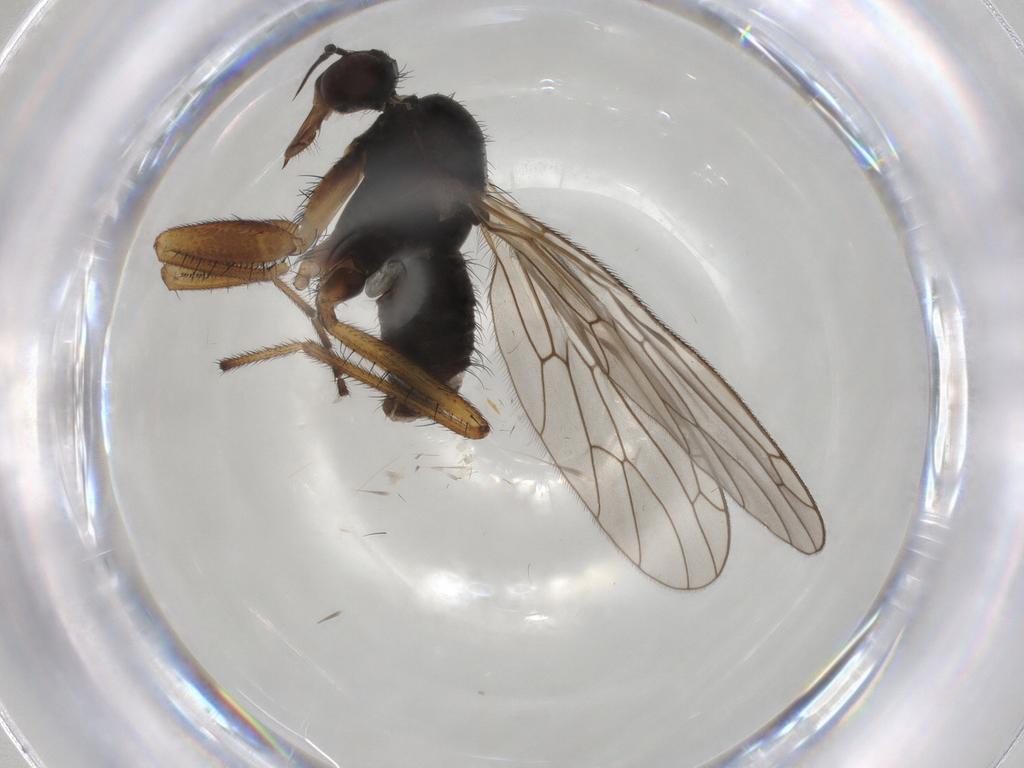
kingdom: Animalia
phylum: Arthropoda
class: Insecta
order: Diptera
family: Empididae
